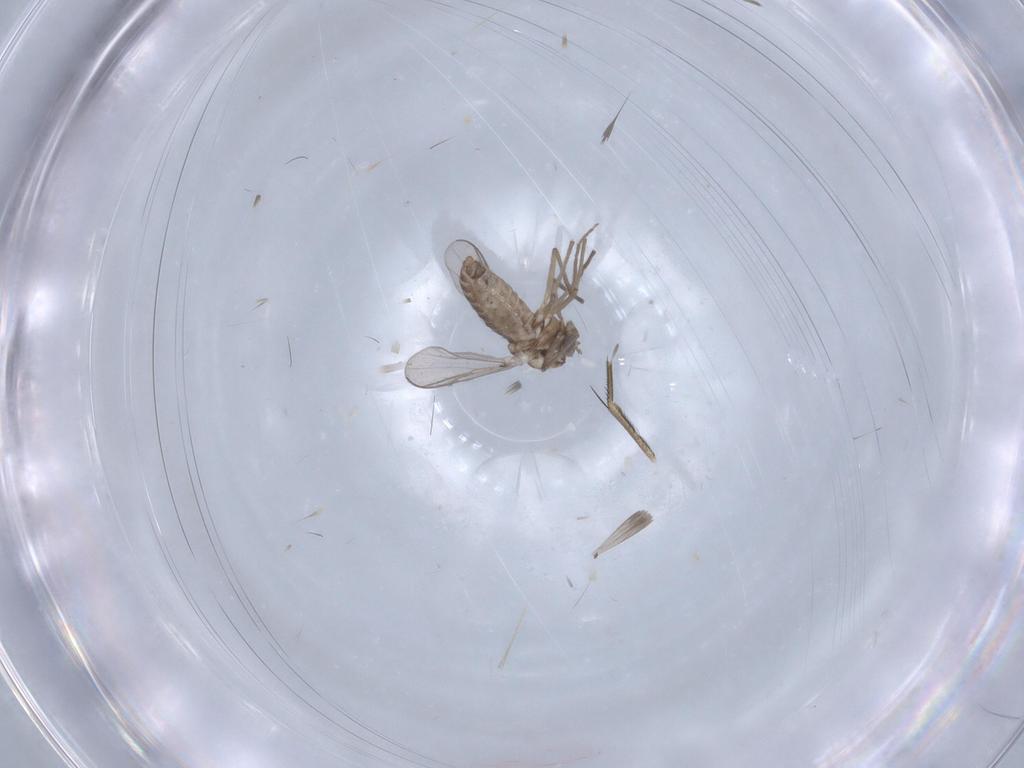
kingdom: Animalia
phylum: Arthropoda
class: Insecta
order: Diptera
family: Chironomidae
